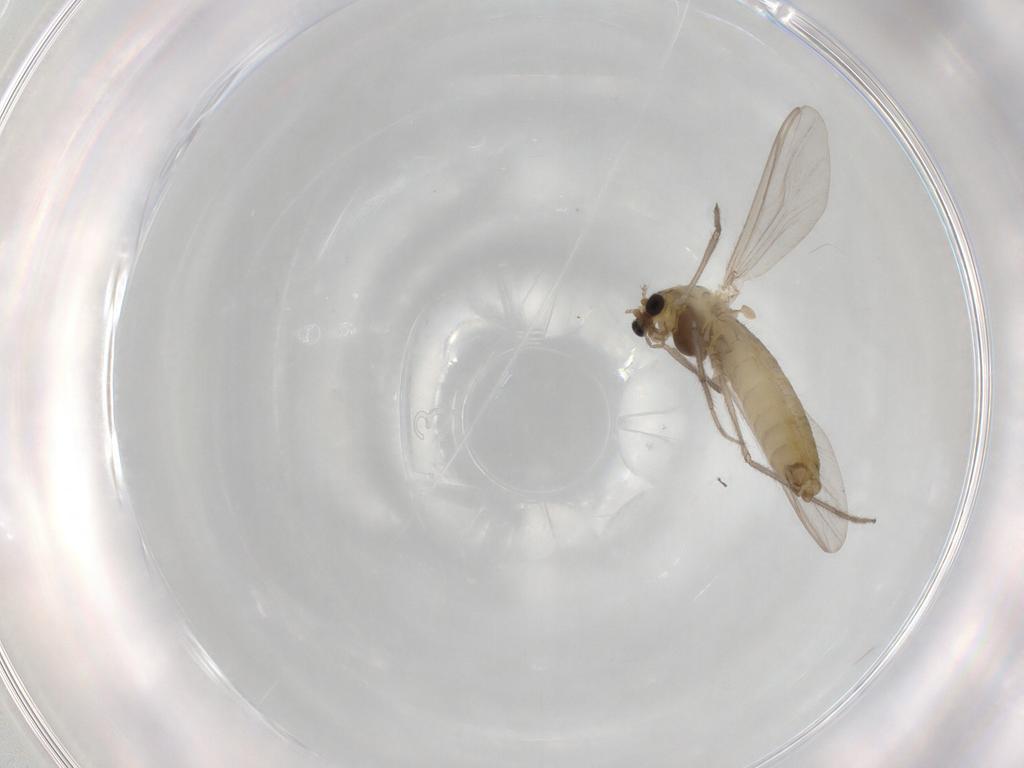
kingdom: Animalia
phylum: Arthropoda
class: Insecta
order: Diptera
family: Chironomidae
